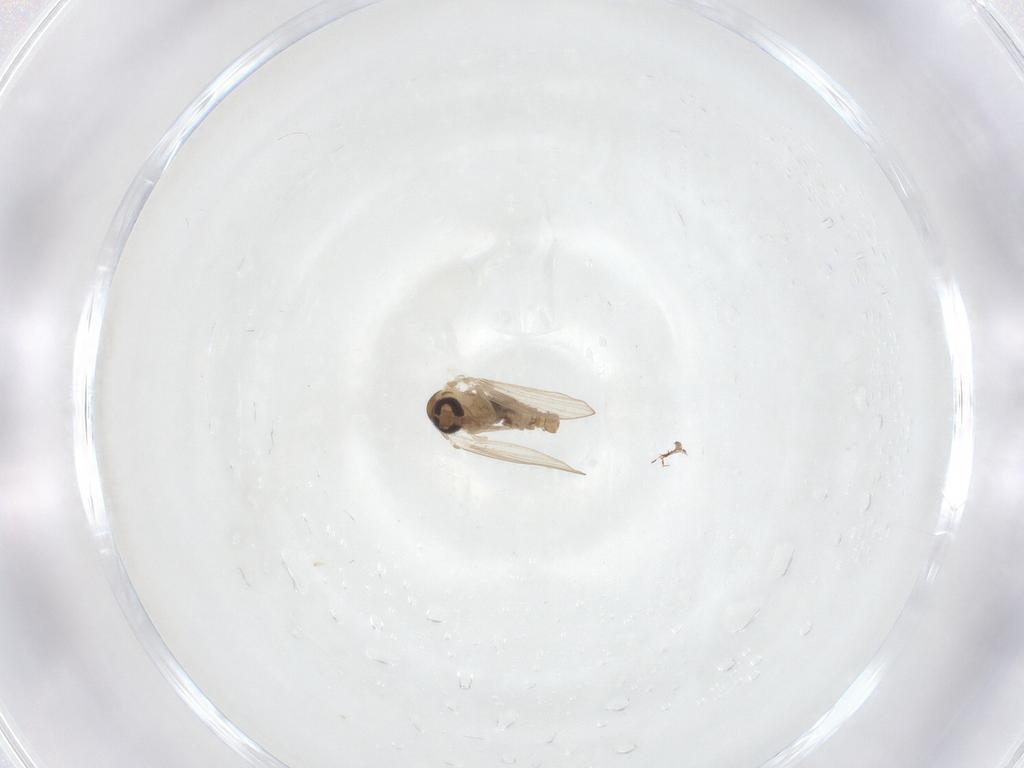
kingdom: Animalia
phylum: Arthropoda
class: Insecta
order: Diptera
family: Psychodidae
